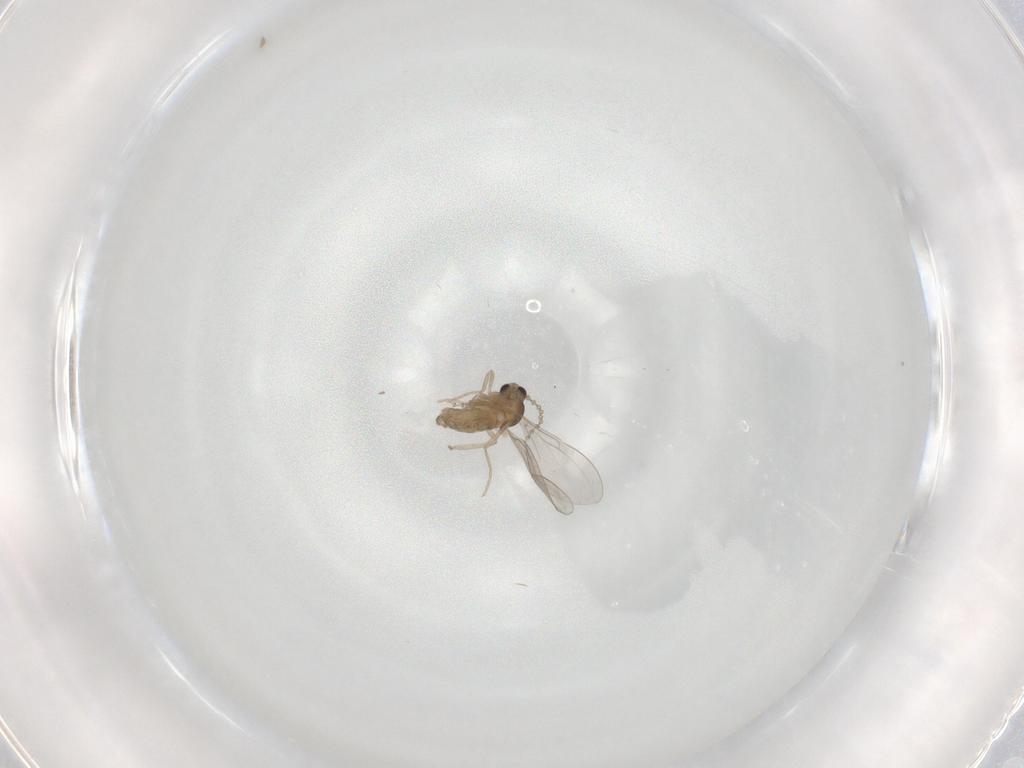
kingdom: Animalia
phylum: Arthropoda
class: Insecta
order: Diptera
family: Cecidomyiidae
